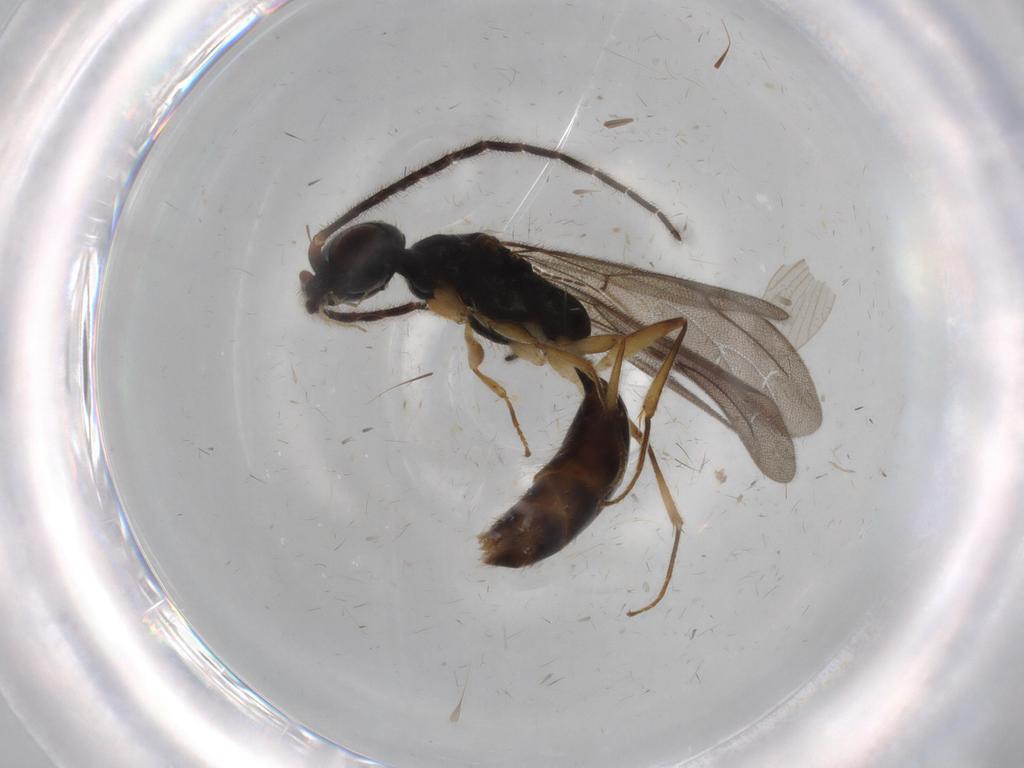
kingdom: Animalia
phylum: Arthropoda
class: Insecta
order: Hymenoptera
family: Bethylidae
